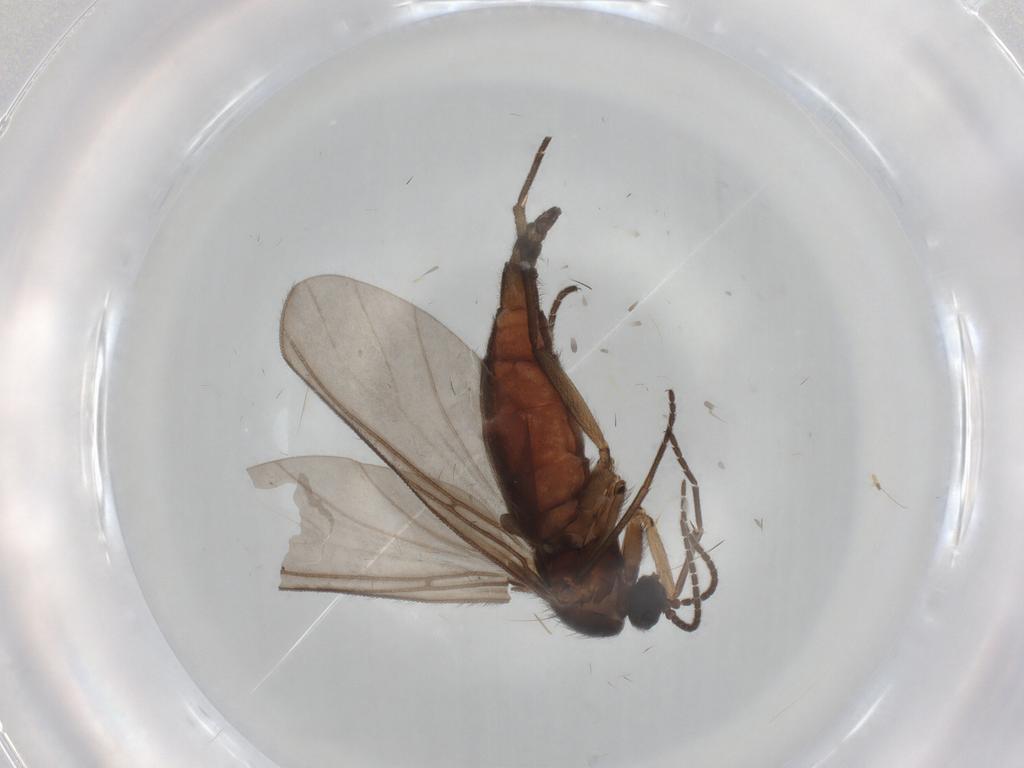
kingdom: Animalia
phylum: Arthropoda
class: Insecta
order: Diptera
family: Sciaridae
